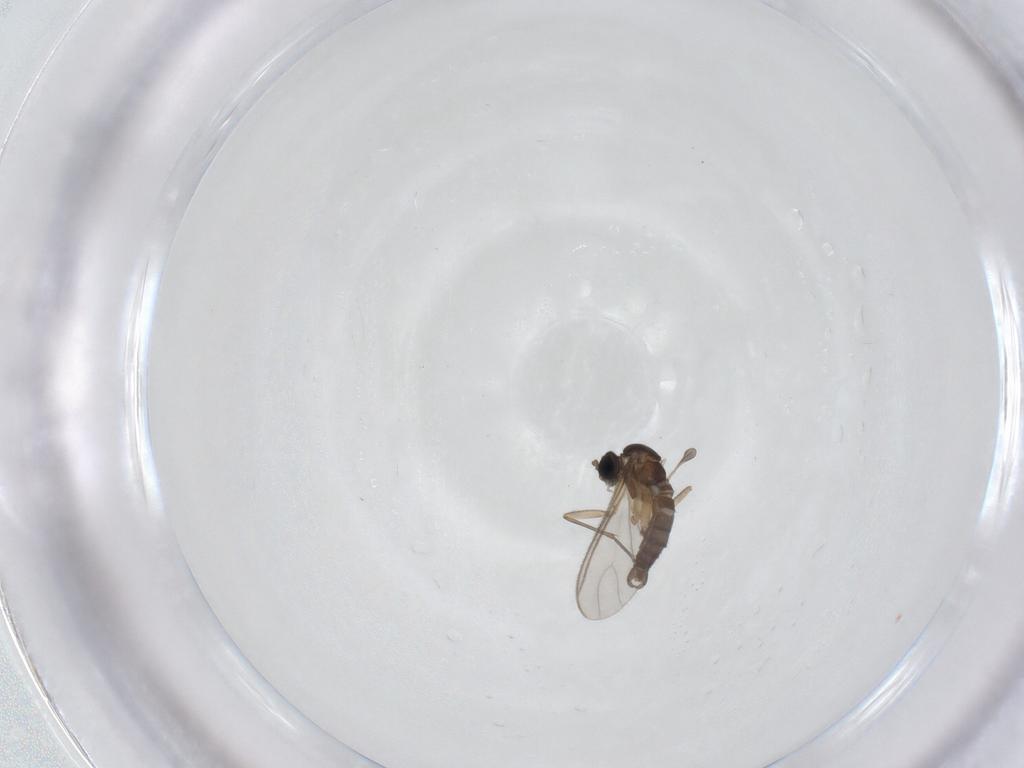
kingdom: Animalia
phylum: Arthropoda
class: Insecta
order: Diptera
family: Sciaridae
